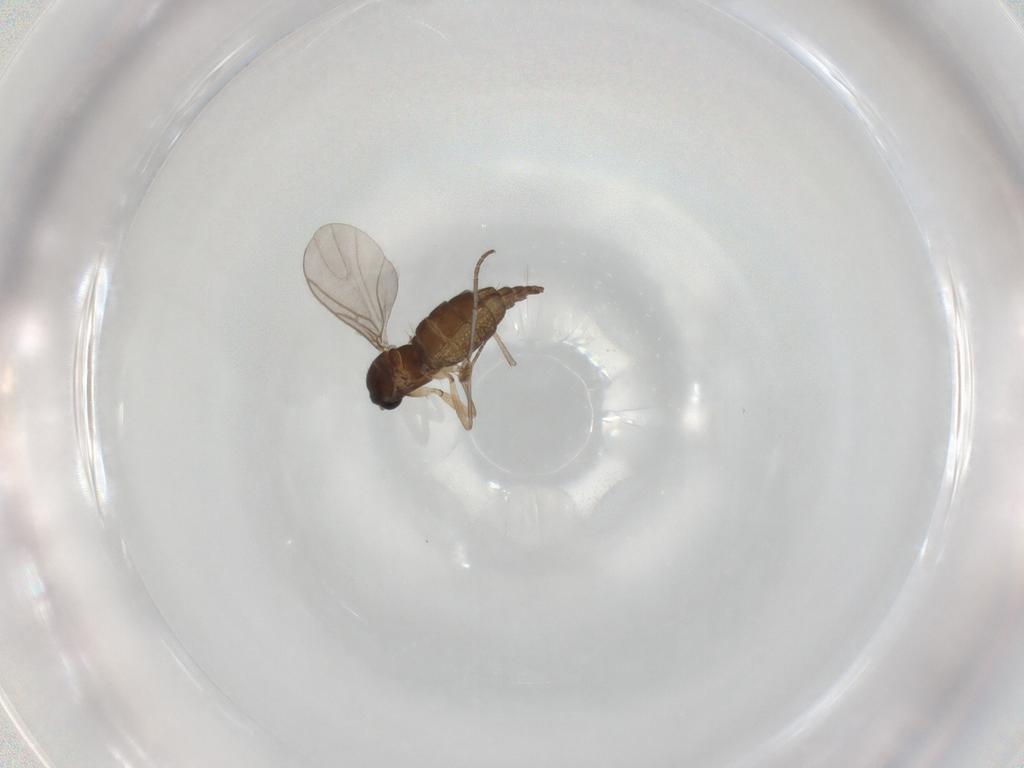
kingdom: Animalia
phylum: Arthropoda
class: Insecta
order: Diptera
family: Sciaridae
